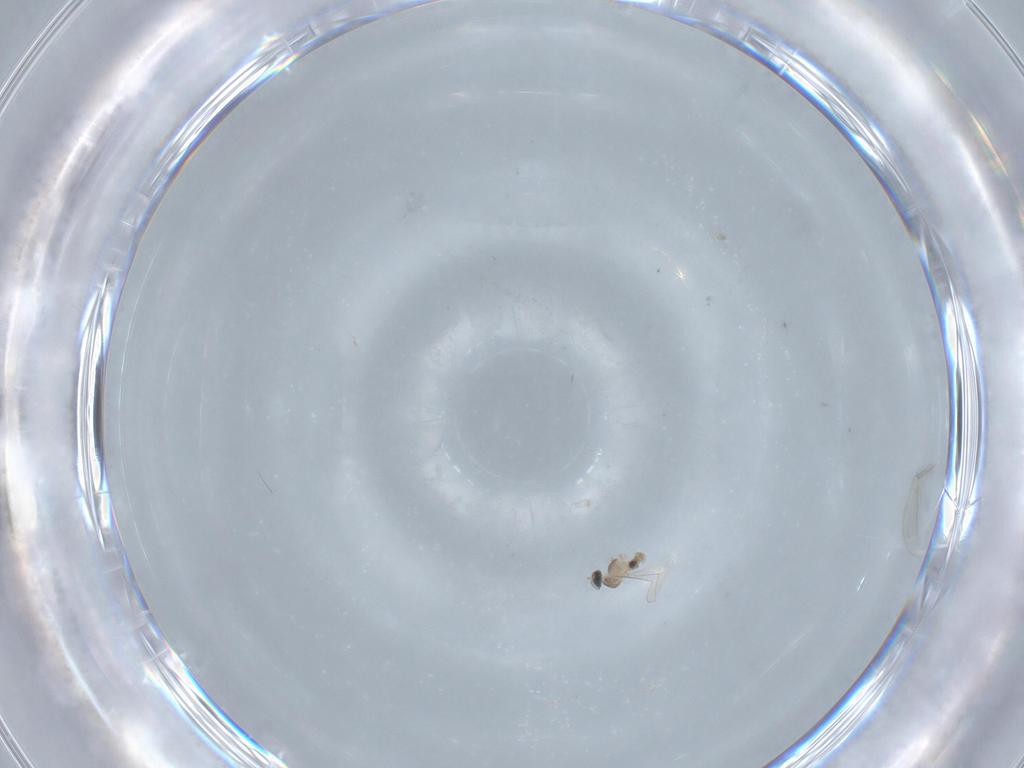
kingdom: Animalia
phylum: Arthropoda
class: Insecta
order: Diptera
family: Cecidomyiidae
